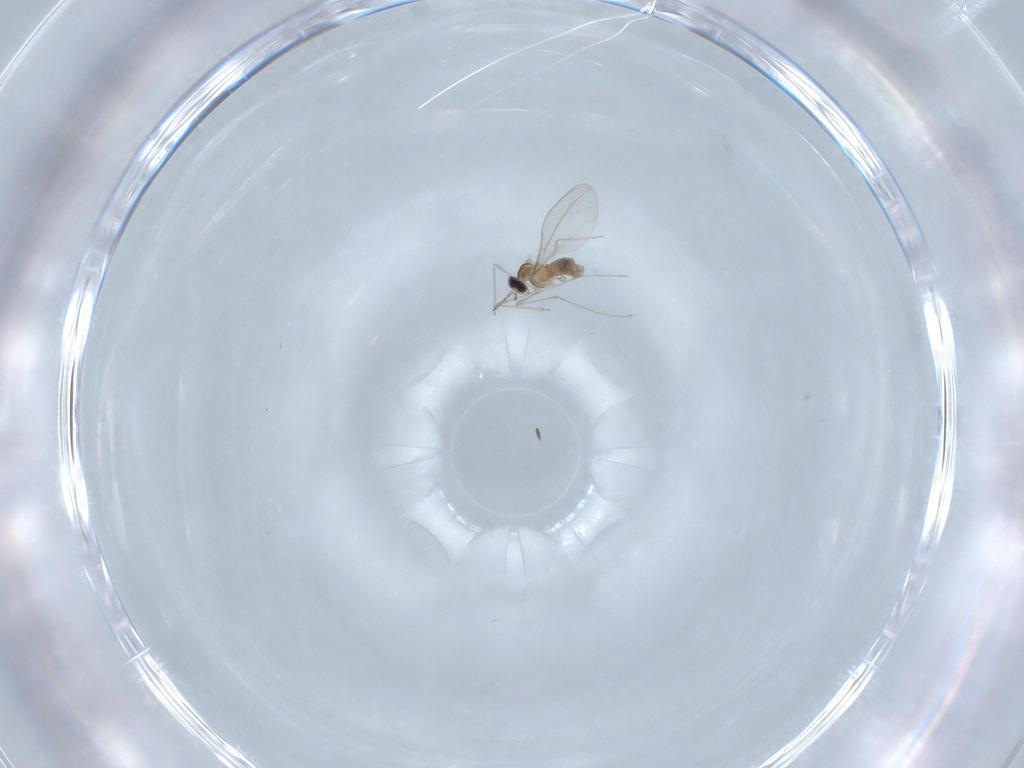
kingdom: Animalia
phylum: Arthropoda
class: Insecta
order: Diptera
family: Cecidomyiidae
